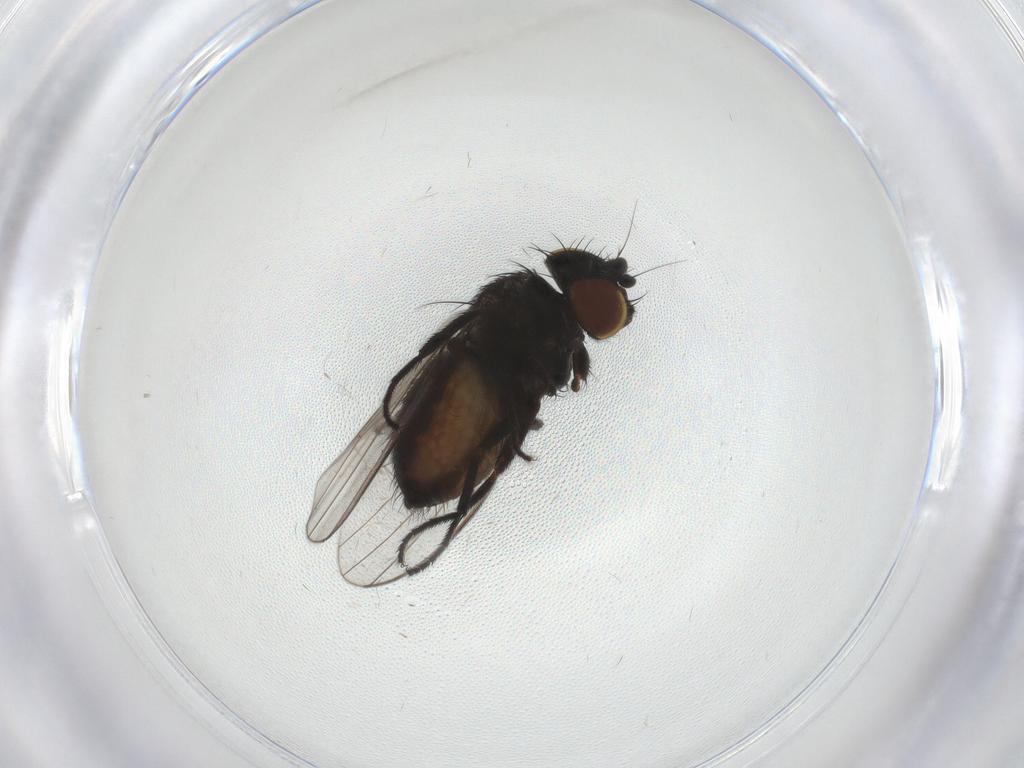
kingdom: Animalia
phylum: Arthropoda
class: Insecta
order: Diptera
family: Milichiidae
